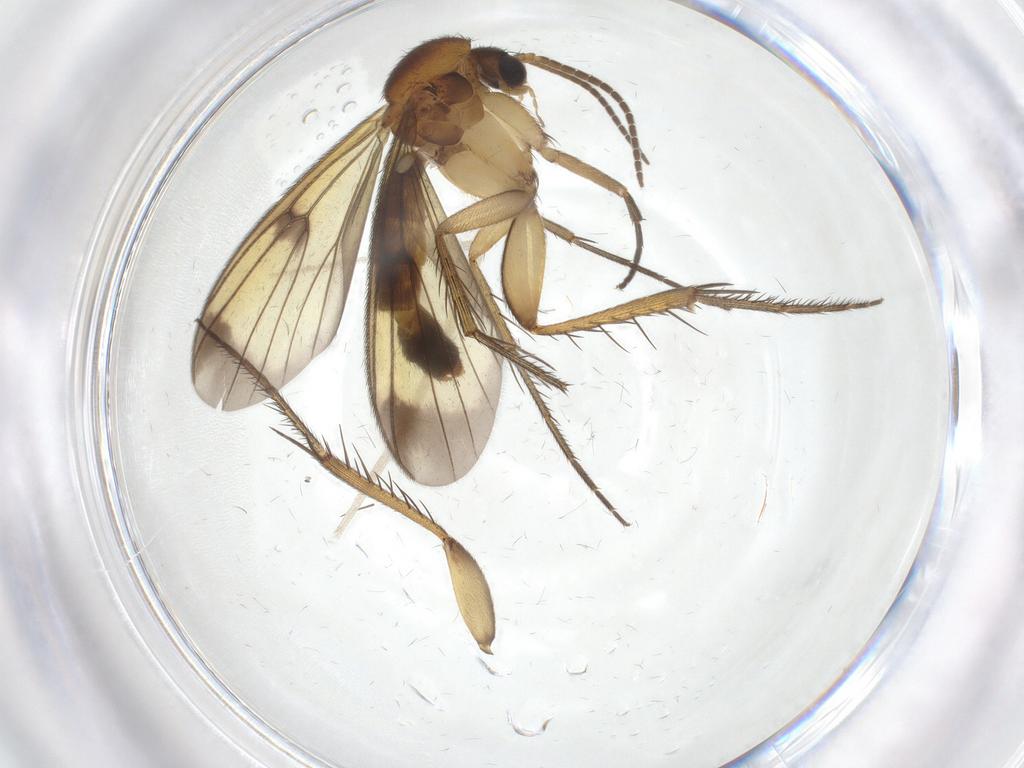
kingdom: Animalia
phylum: Arthropoda
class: Insecta
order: Diptera
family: Mycetophilidae
